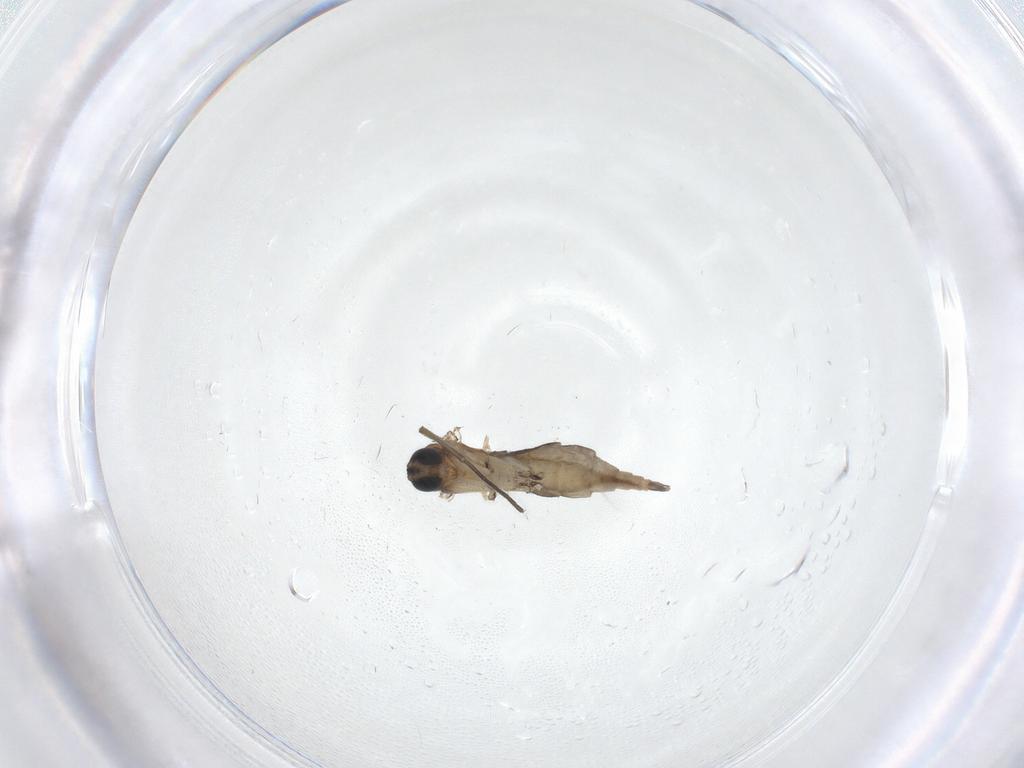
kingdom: Animalia
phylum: Arthropoda
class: Insecta
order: Diptera
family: Sciaridae
